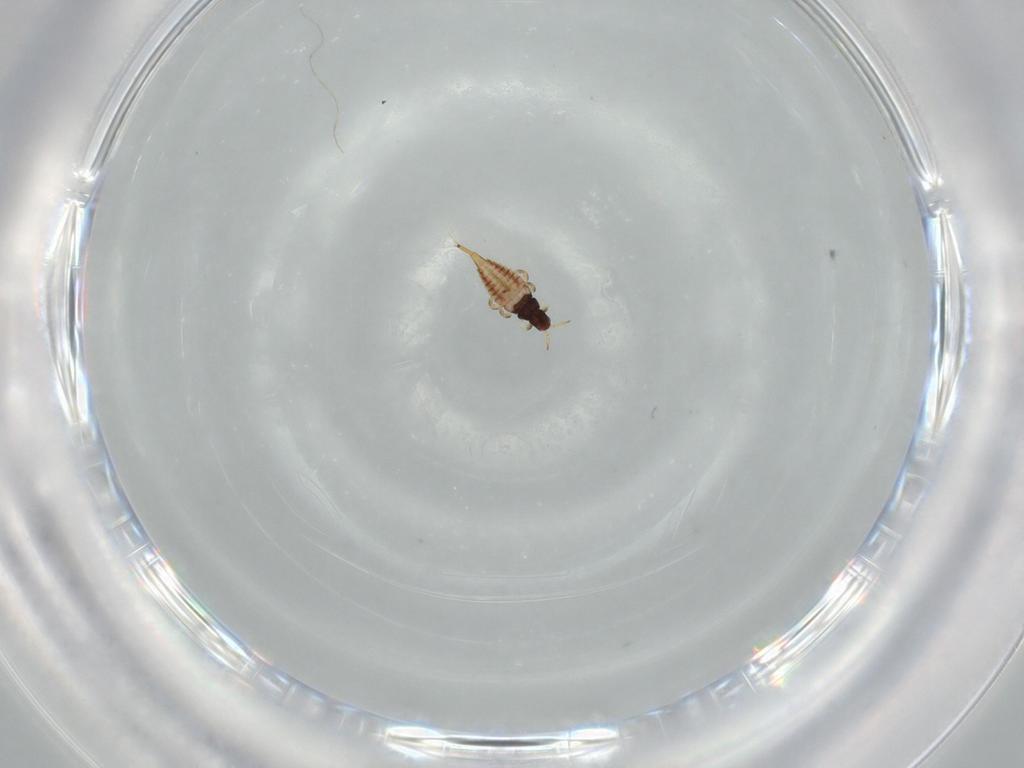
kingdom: Animalia
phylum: Arthropoda
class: Insecta
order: Thysanoptera
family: Phlaeothripidae
